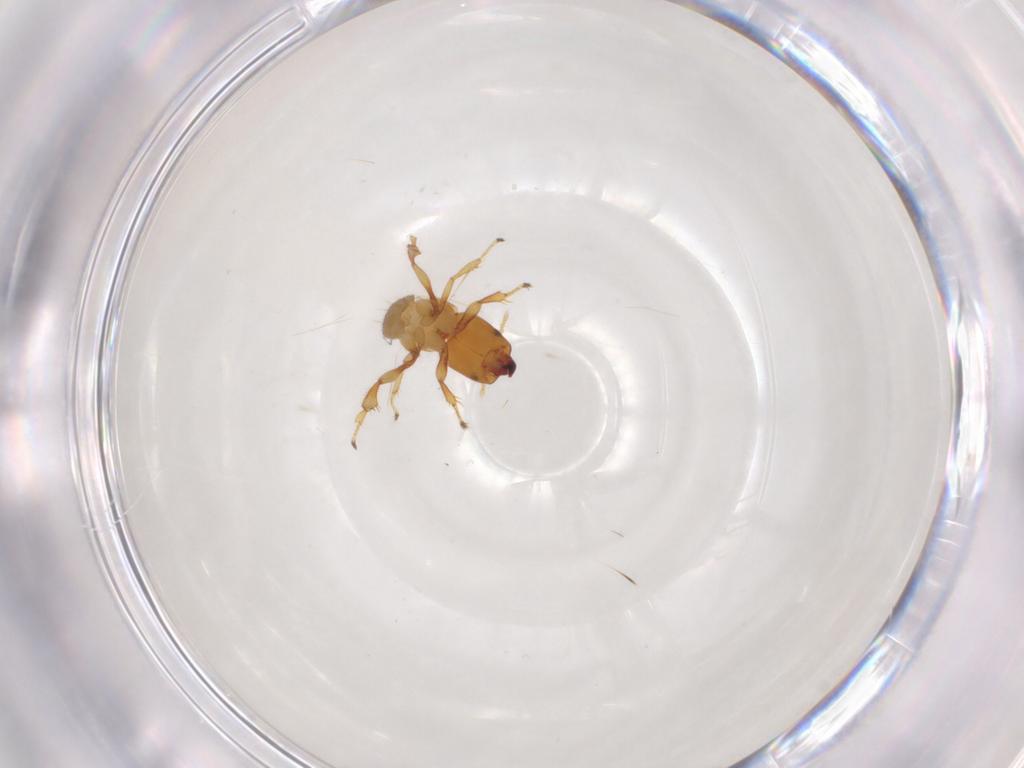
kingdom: Animalia
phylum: Arthropoda
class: Insecta
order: Hymenoptera
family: Pteromalidae
